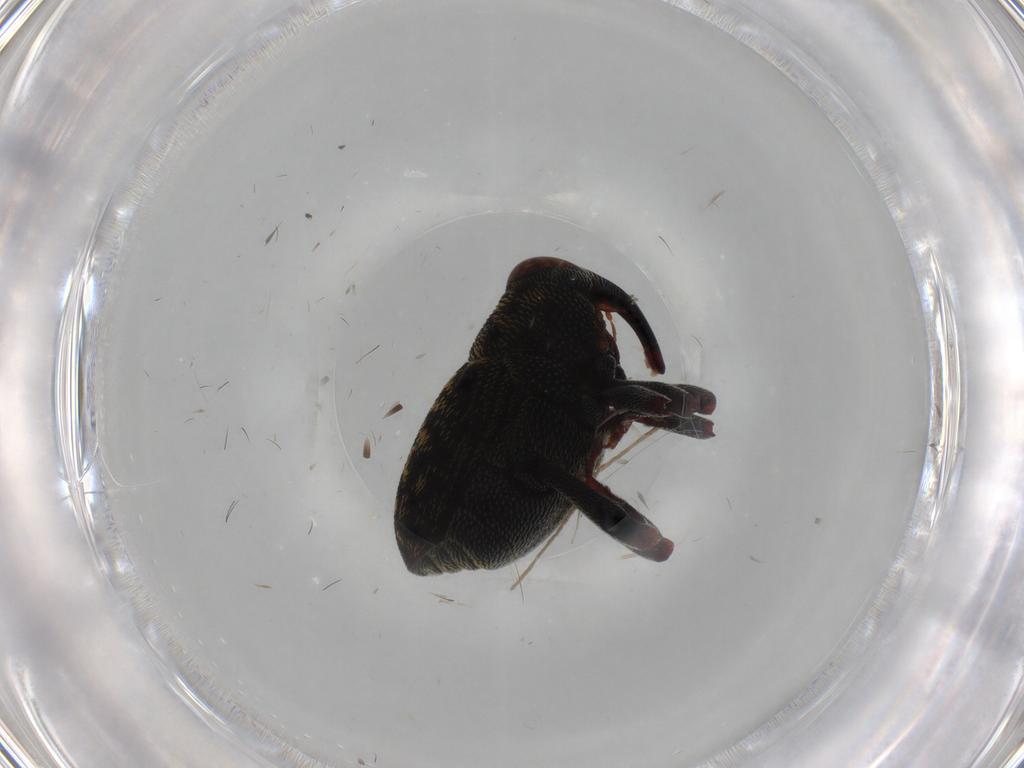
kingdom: Animalia
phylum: Arthropoda
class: Insecta
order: Coleoptera
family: Curculionidae
